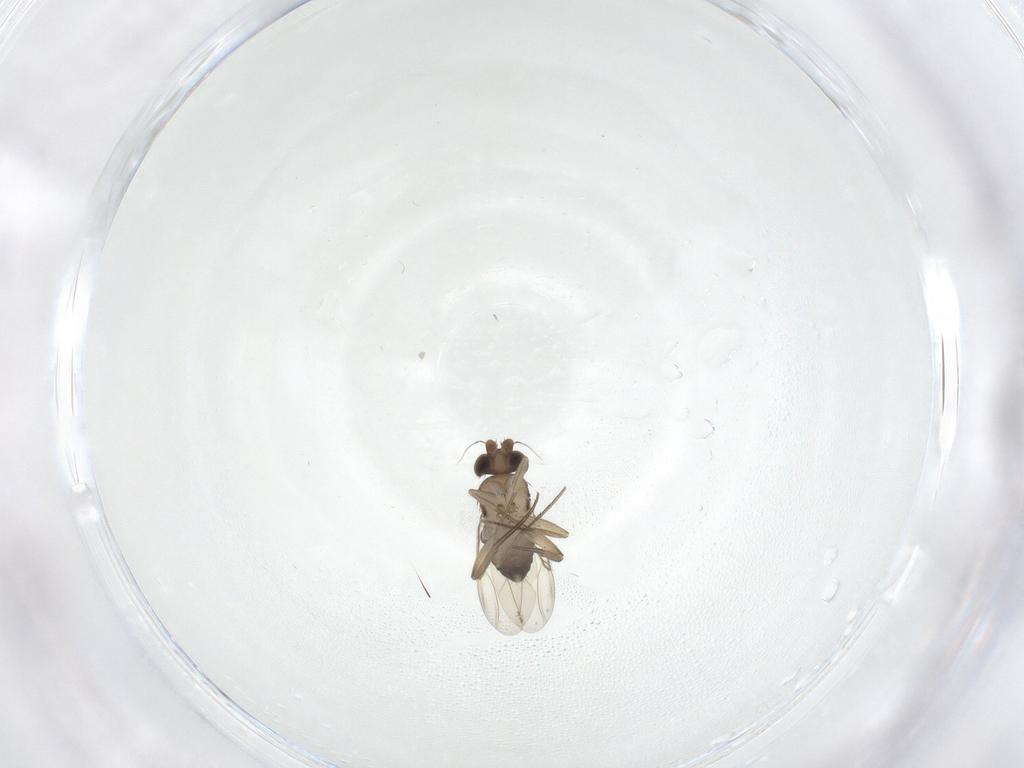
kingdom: Animalia
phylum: Arthropoda
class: Insecta
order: Diptera
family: Phoridae
